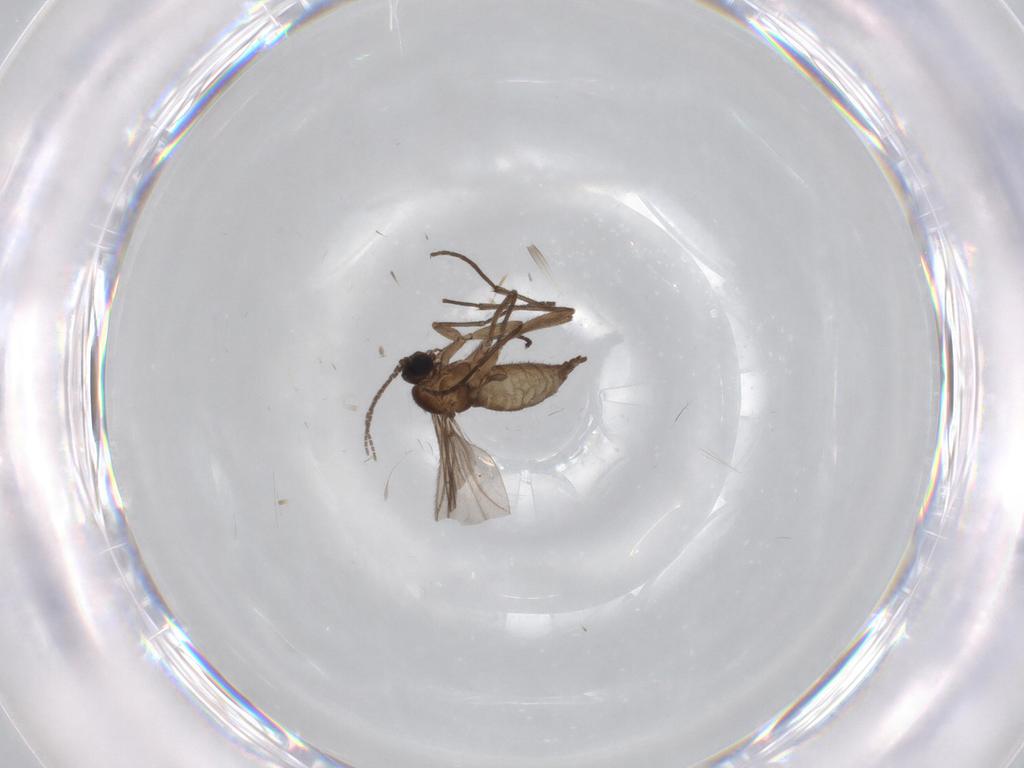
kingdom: Animalia
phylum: Arthropoda
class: Insecta
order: Diptera
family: Sciaridae
